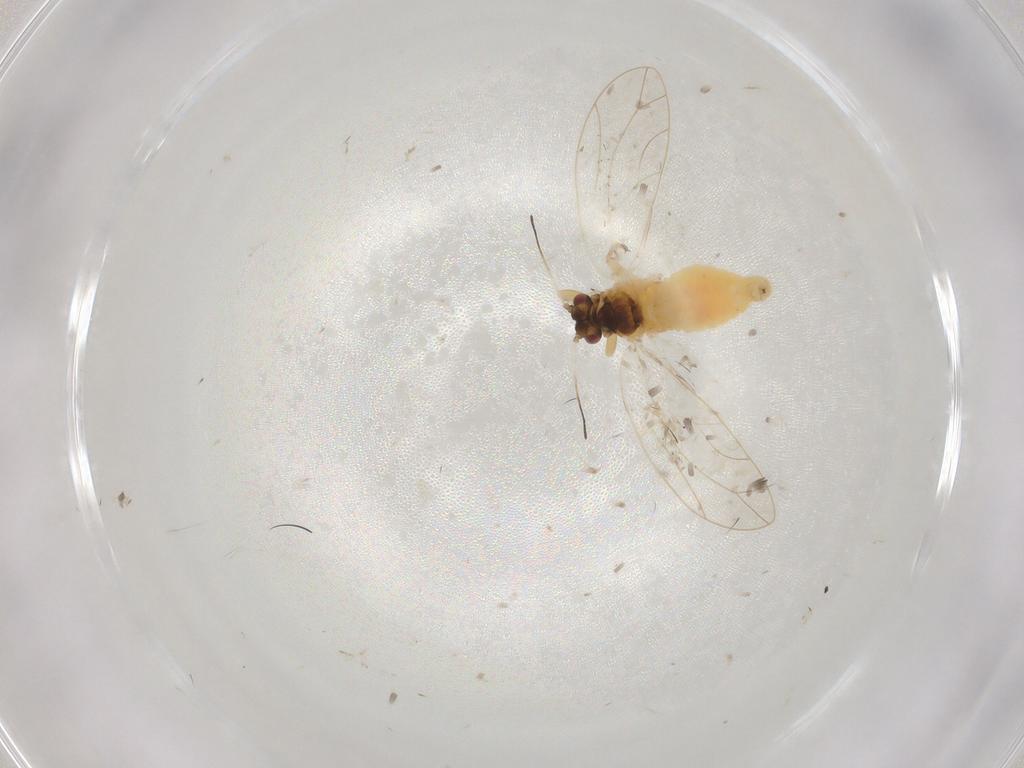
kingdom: Animalia
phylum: Arthropoda
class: Insecta
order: Hemiptera
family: Triozidae
